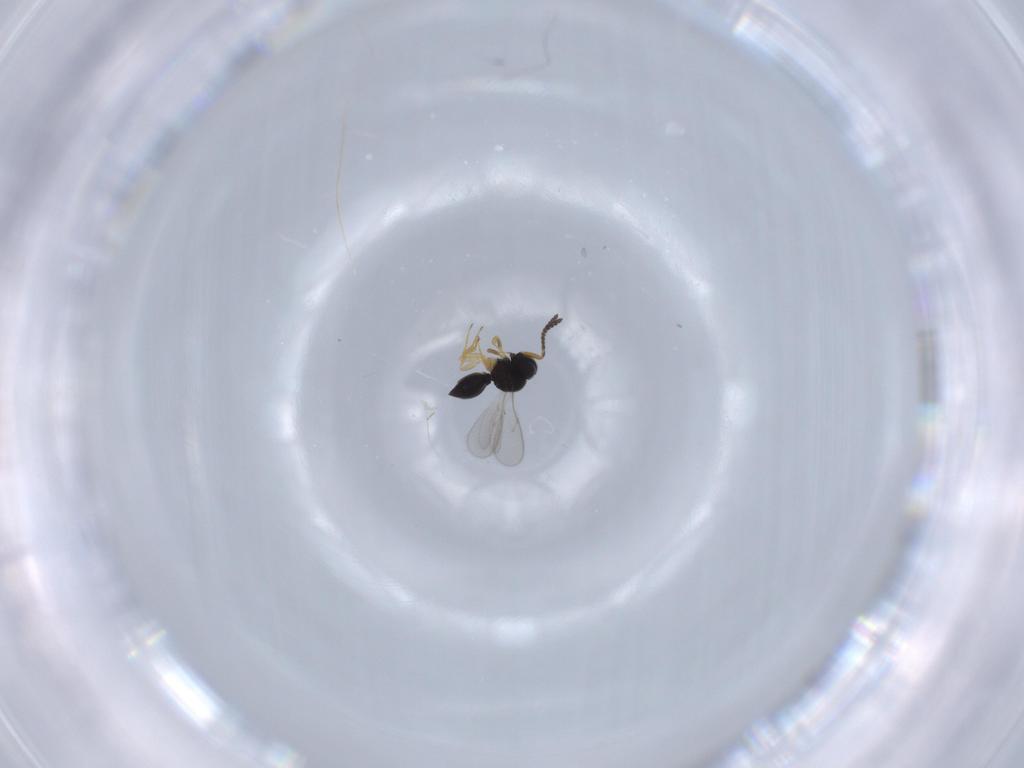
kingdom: Animalia
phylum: Arthropoda
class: Insecta
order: Hymenoptera
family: Scelionidae
